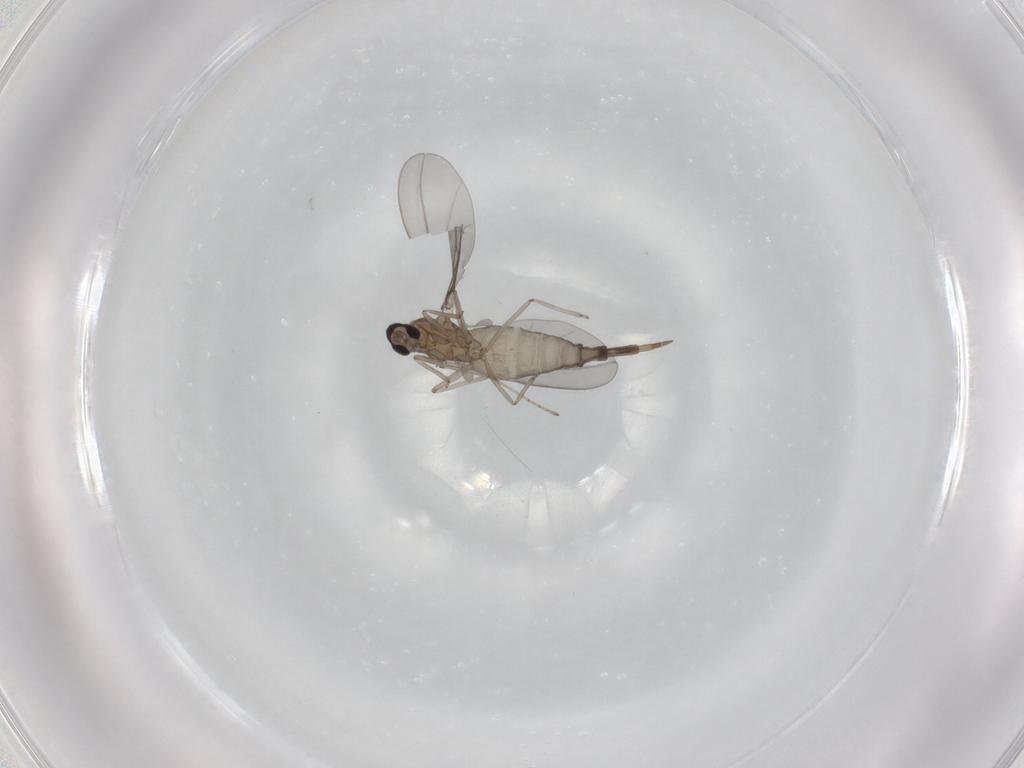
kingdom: Animalia
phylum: Arthropoda
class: Insecta
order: Diptera
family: Cecidomyiidae
